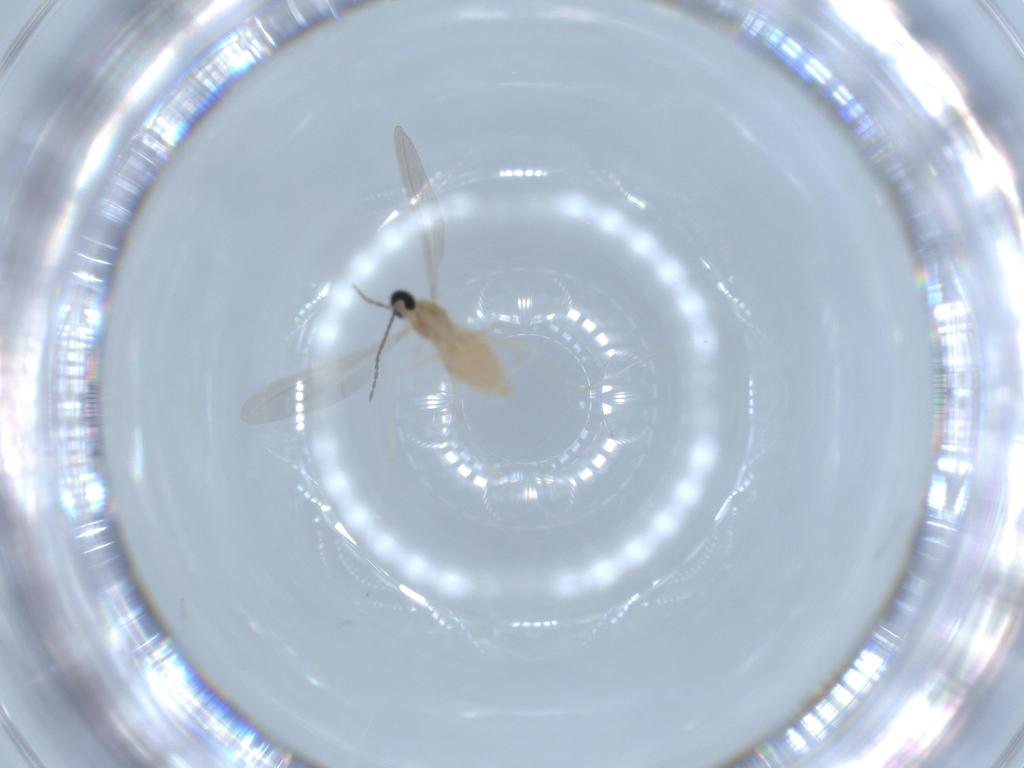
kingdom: Animalia
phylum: Arthropoda
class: Insecta
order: Diptera
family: Cecidomyiidae
